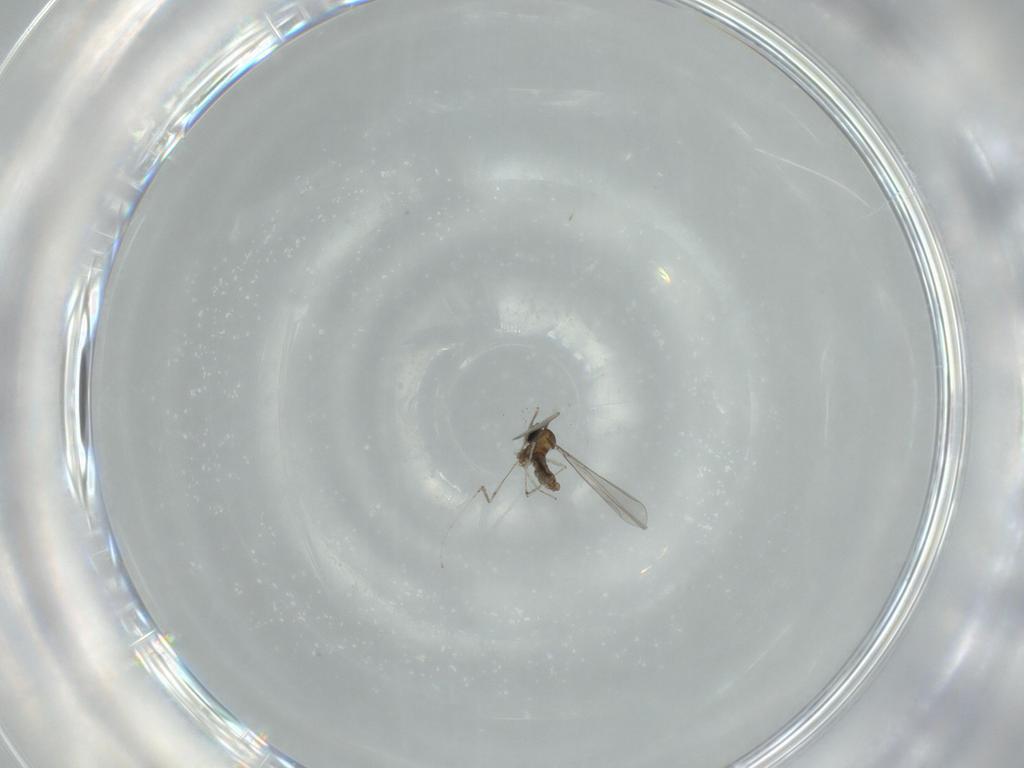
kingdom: Animalia
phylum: Arthropoda
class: Insecta
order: Diptera
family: Cecidomyiidae
